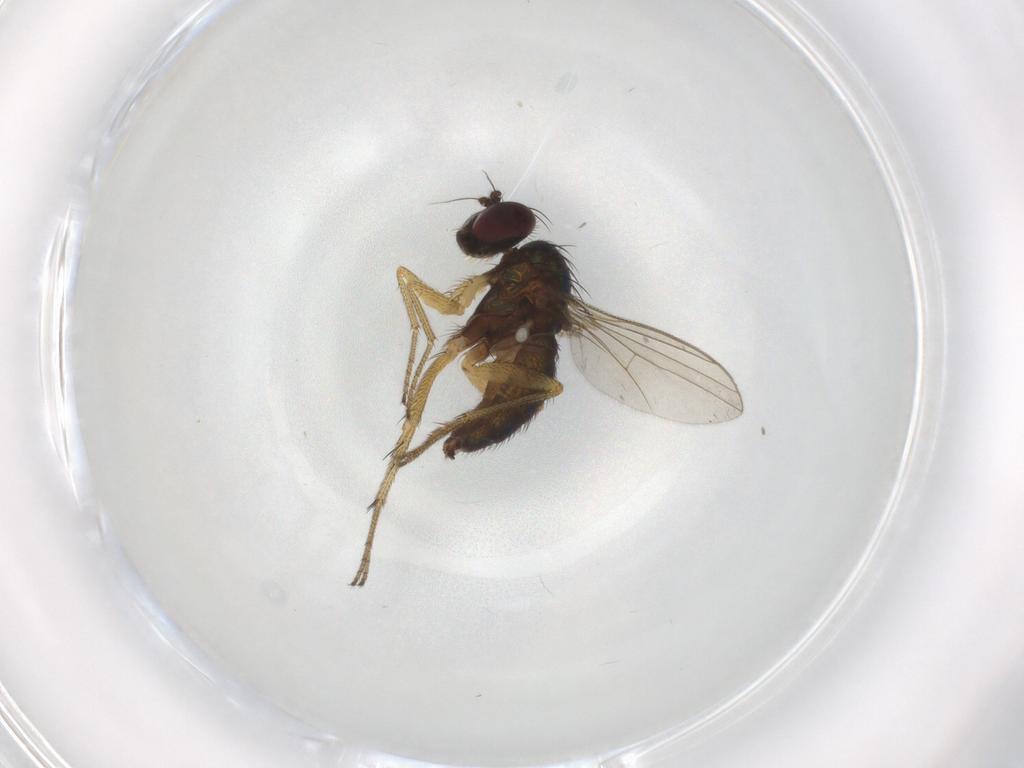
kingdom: Animalia
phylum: Arthropoda
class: Insecta
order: Diptera
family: Dolichopodidae
